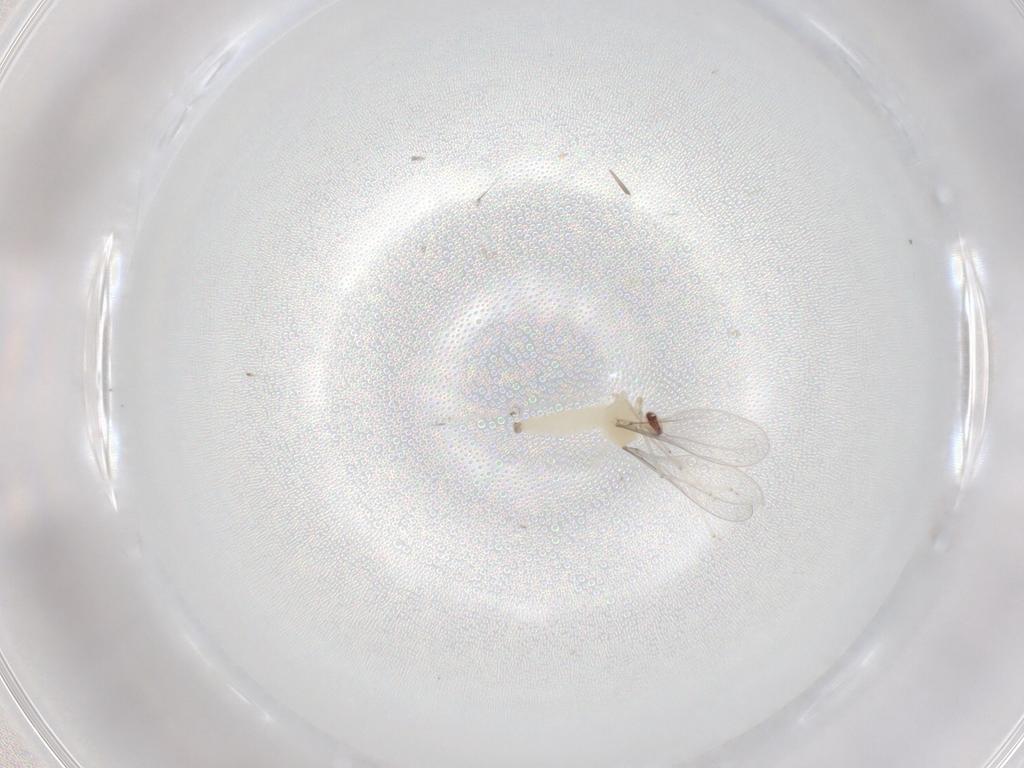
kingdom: Animalia
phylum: Arthropoda
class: Insecta
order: Diptera
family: Cecidomyiidae
